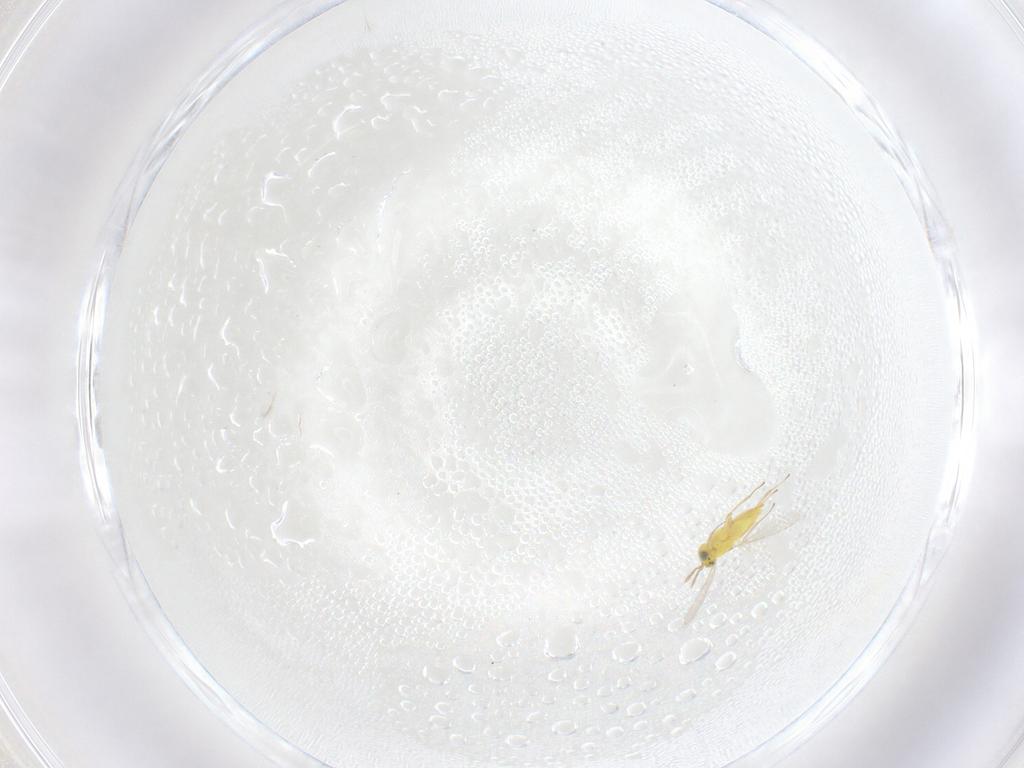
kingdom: Animalia
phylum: Arthropoda
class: Insecta
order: Hymenoptera
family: Aphelinidae
